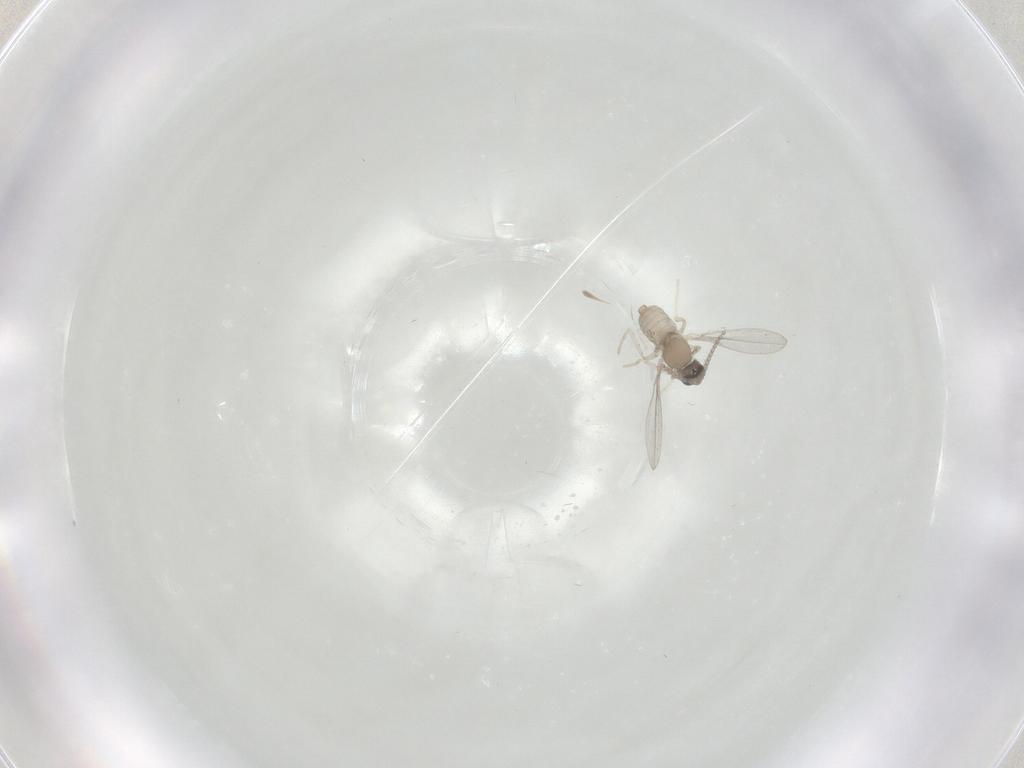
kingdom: Animalia
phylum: Arthropoda
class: Insecta
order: Diptera
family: Cecidomyiidae
